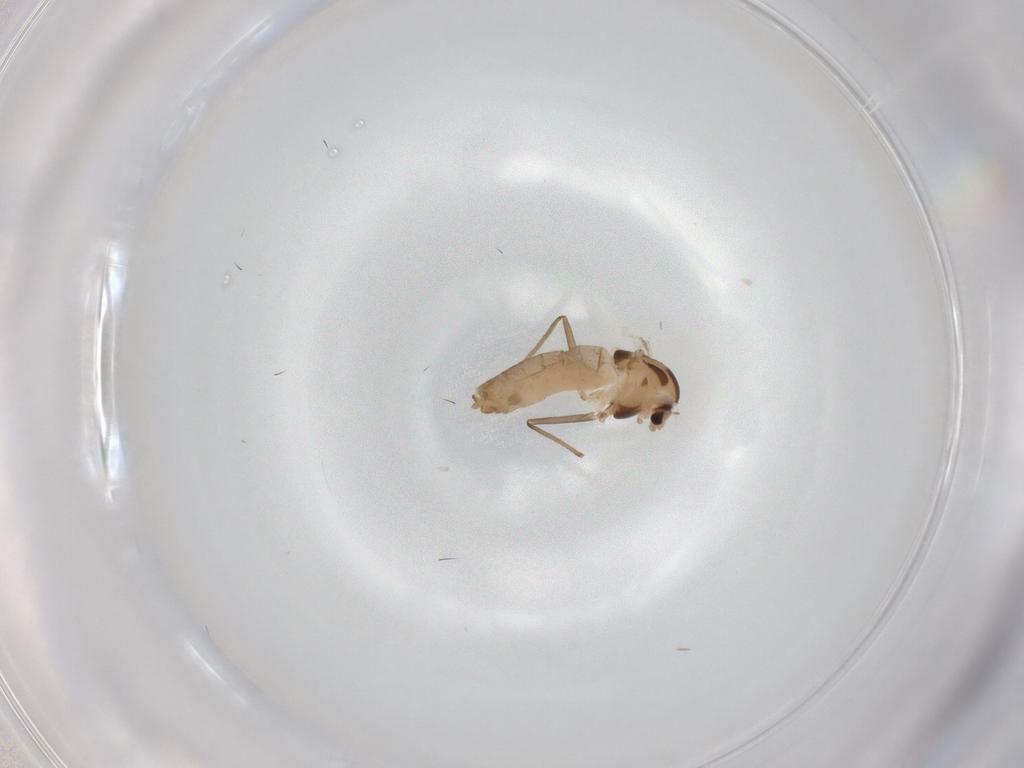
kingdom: Animalia
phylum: Arthropoda
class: Insecta
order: Diptera
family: Chironomidae
